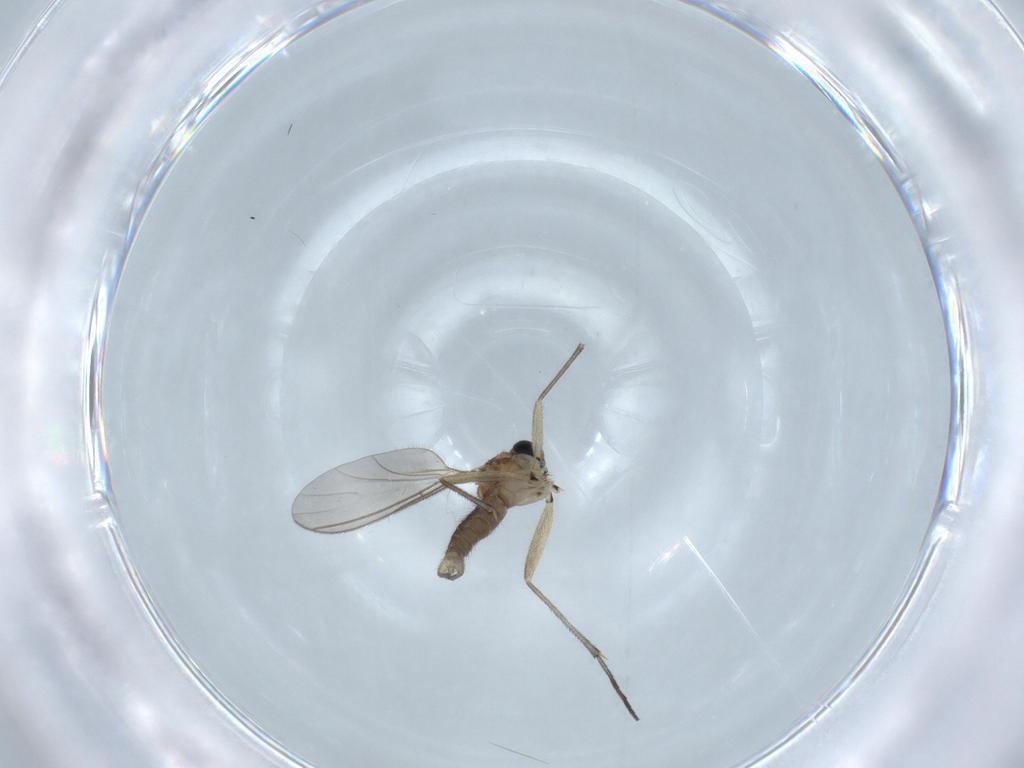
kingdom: Animalia
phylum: Arthropoda
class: Insecta
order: Diptera
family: Sciaridae
